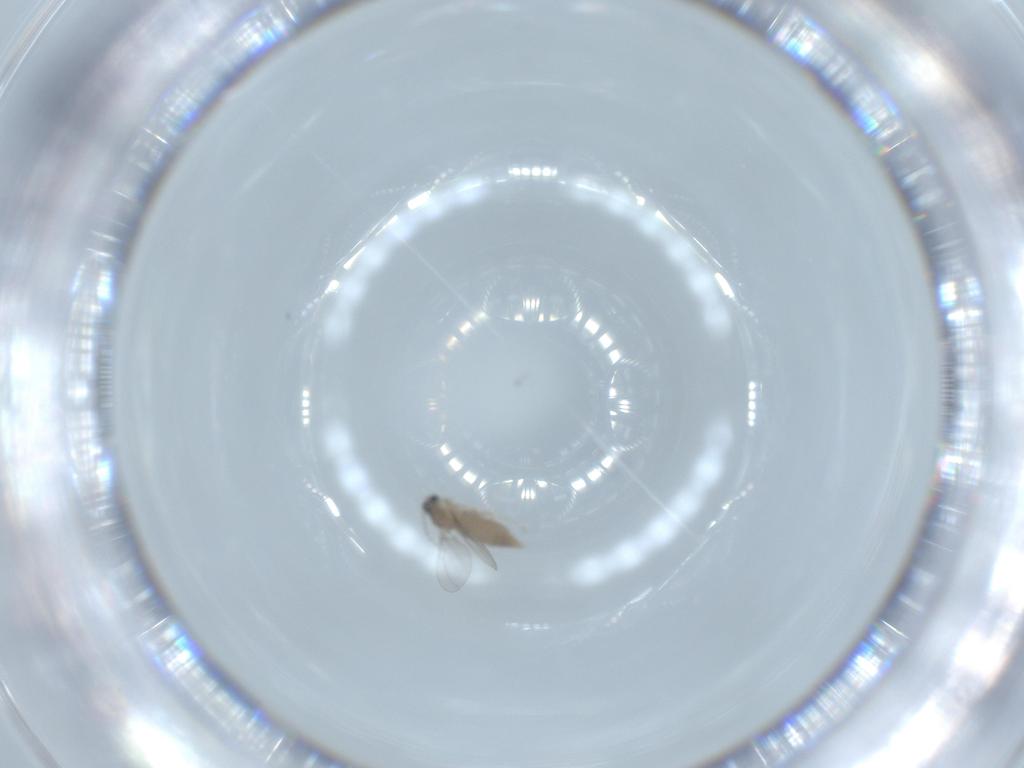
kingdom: Animalia
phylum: Arthropoda
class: Insecta
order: Diptera
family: Cecidomyiidae
